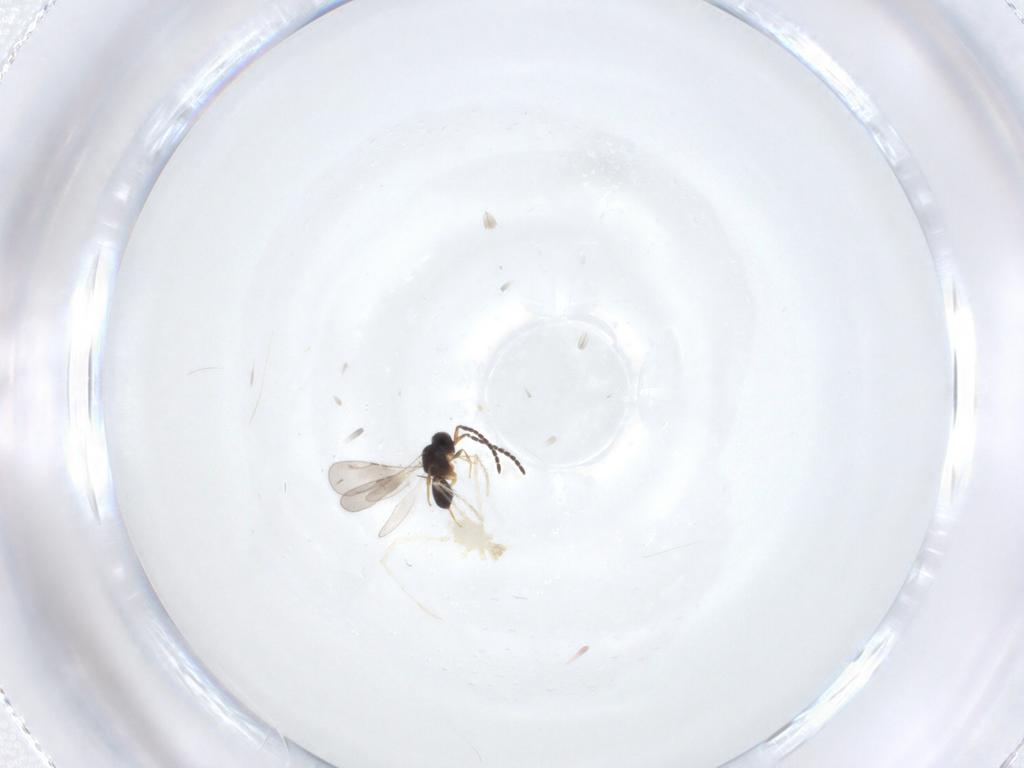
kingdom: Animalia
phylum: Arthropoda
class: Insecta
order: Hymenoptera
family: Ceraphronidae
